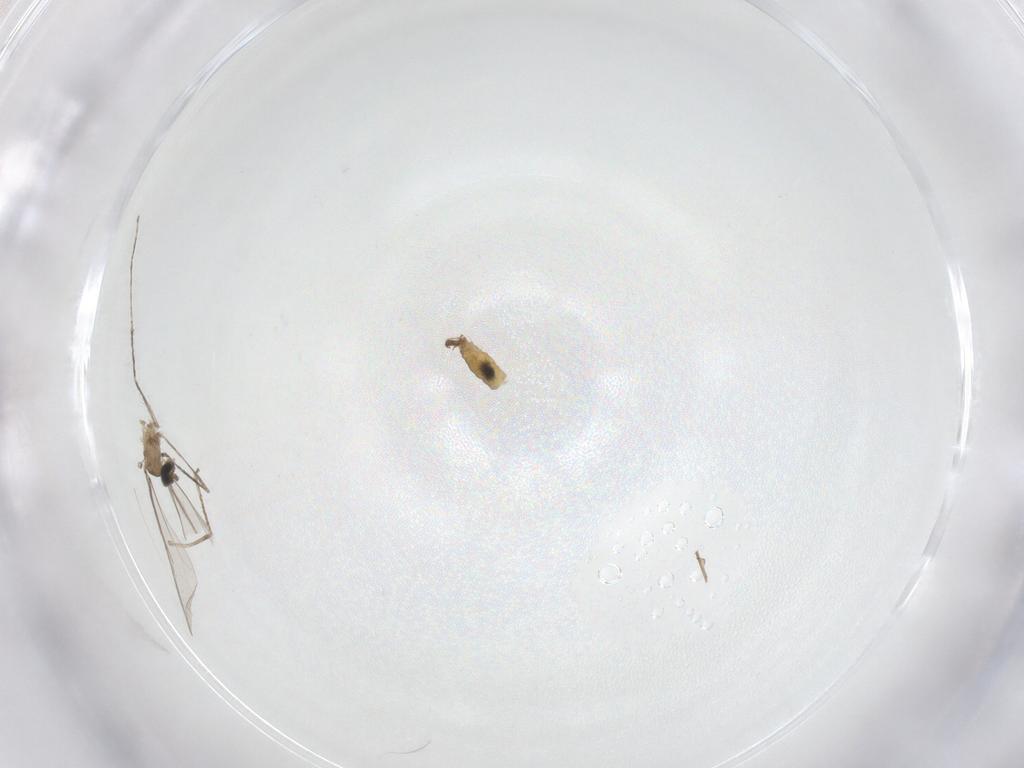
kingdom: Animalia
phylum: Arthropoda
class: Insecta
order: Diptera
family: Cecidomyiidae
